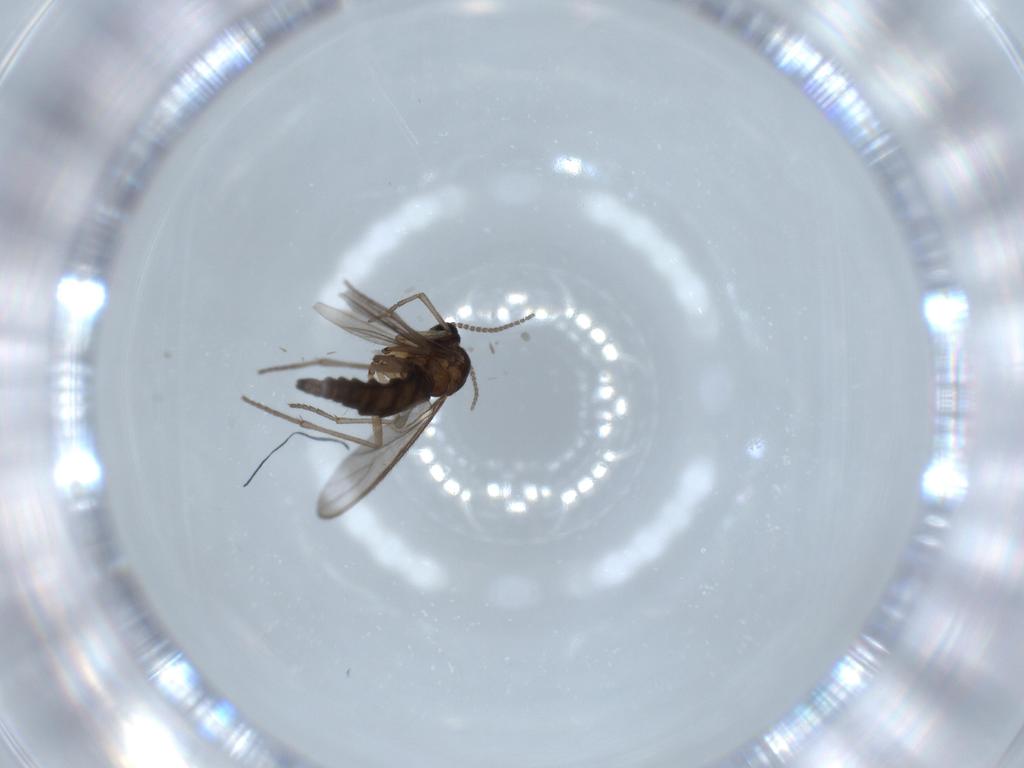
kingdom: Animalia
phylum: Arthropoda
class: Insecta
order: Diptera
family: Sciaridae
